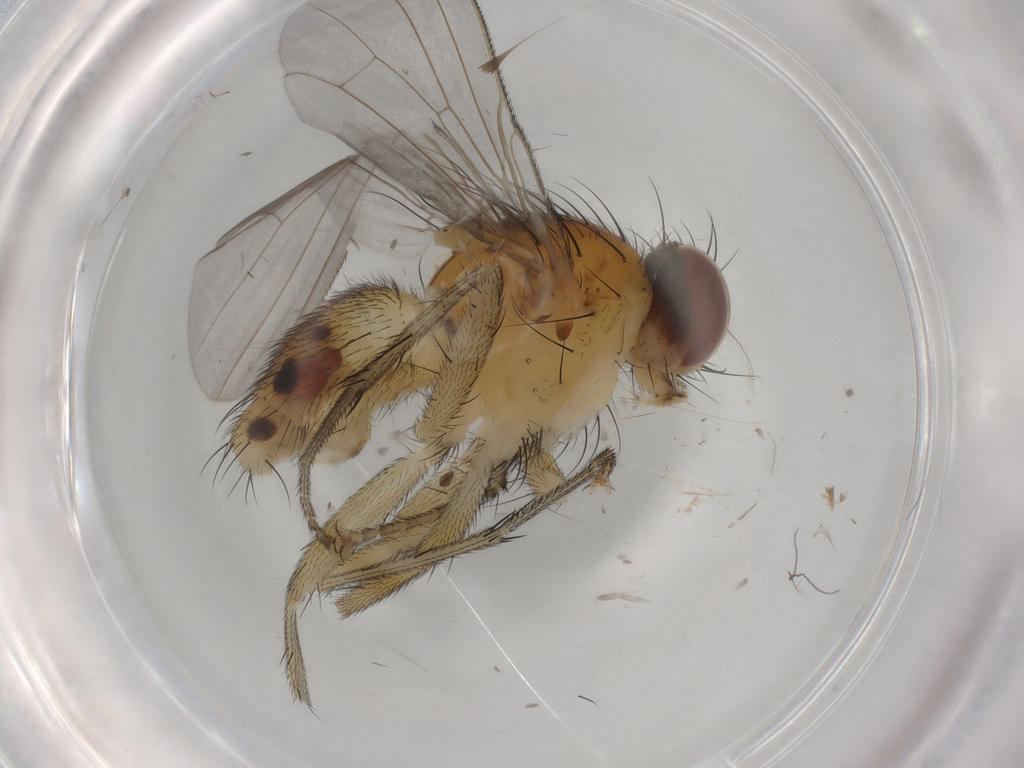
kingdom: Animalia
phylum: Arthropoda
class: Insecta
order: Diptera
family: Muscidae
